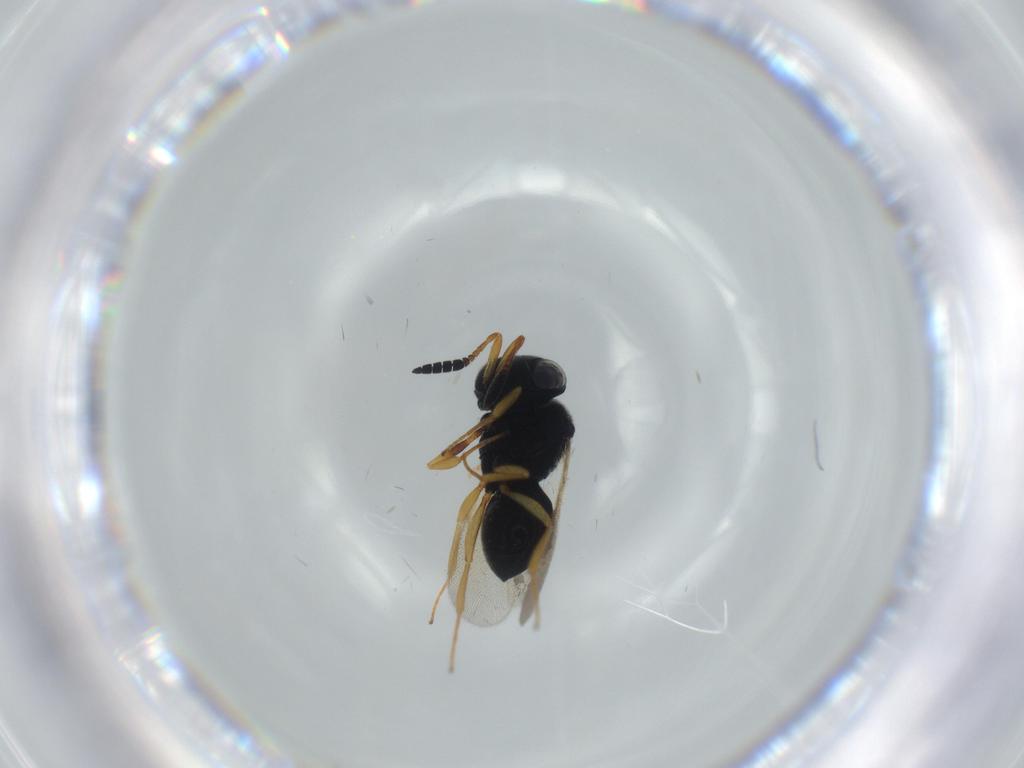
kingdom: Animalia
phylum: Arthropoda
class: Insecta
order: Hymenoptera
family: Scelionidae
